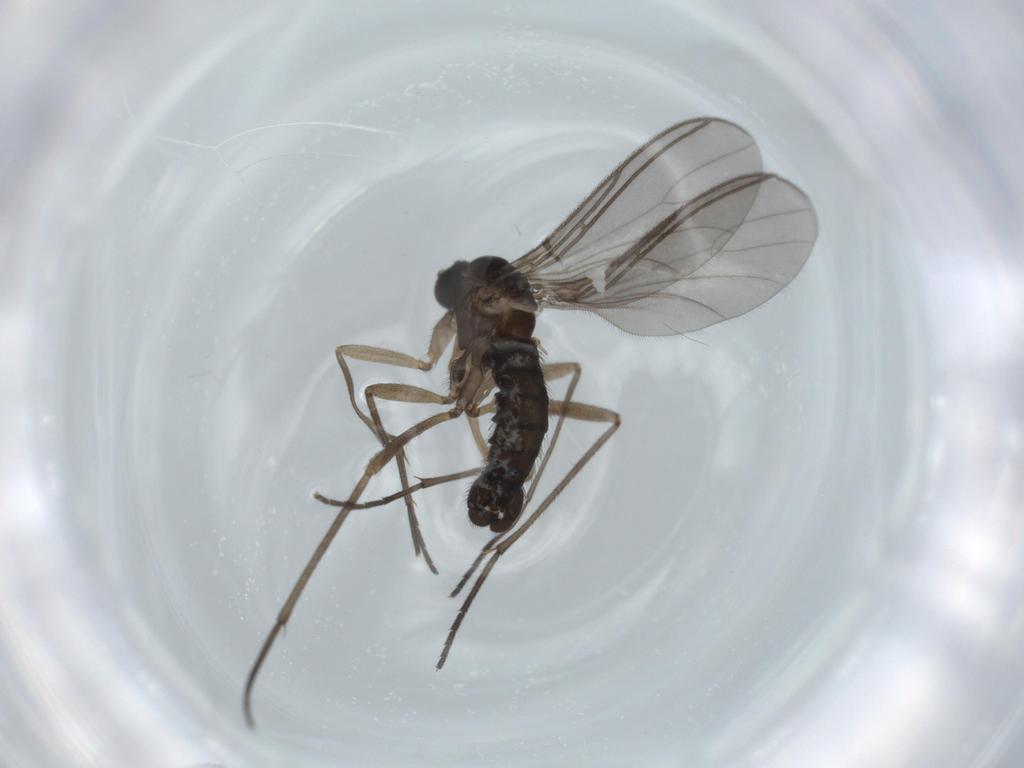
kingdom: Animalia
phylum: Arthropoda
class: Insecta
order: Diptera
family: Sciaridae
